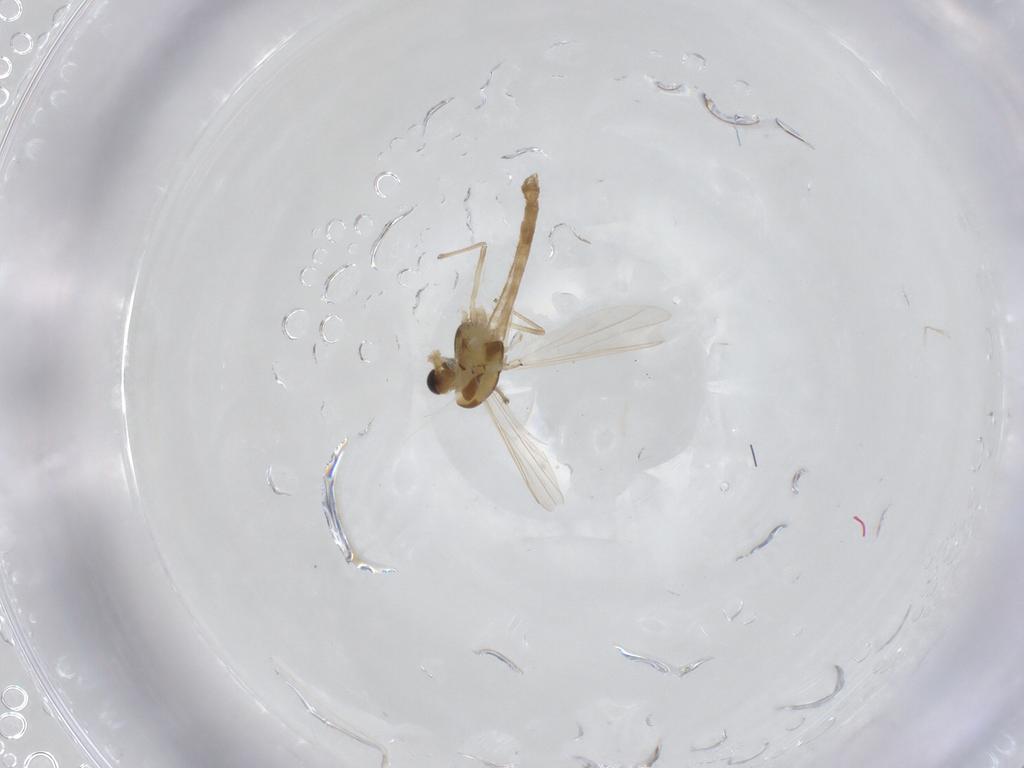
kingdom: Animalia
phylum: Arthropoda
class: Insecta
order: Diptera
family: Chironomidae
